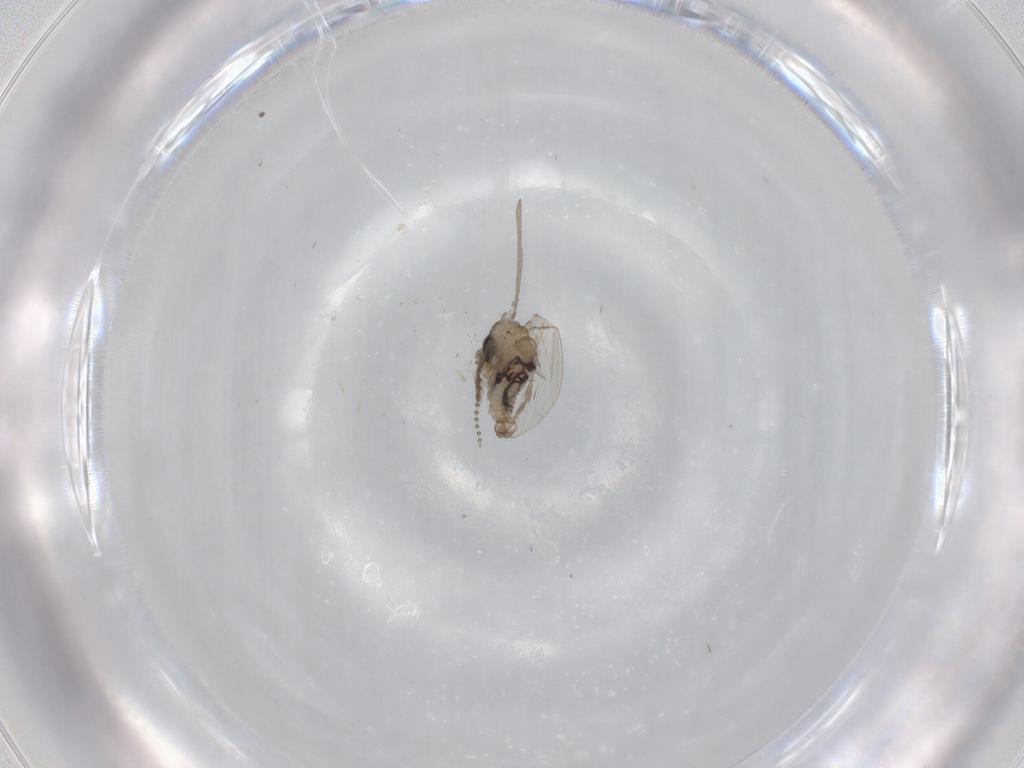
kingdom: Animalia
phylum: Arthropoda
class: Insecta
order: Diptera
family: Psychodidae
